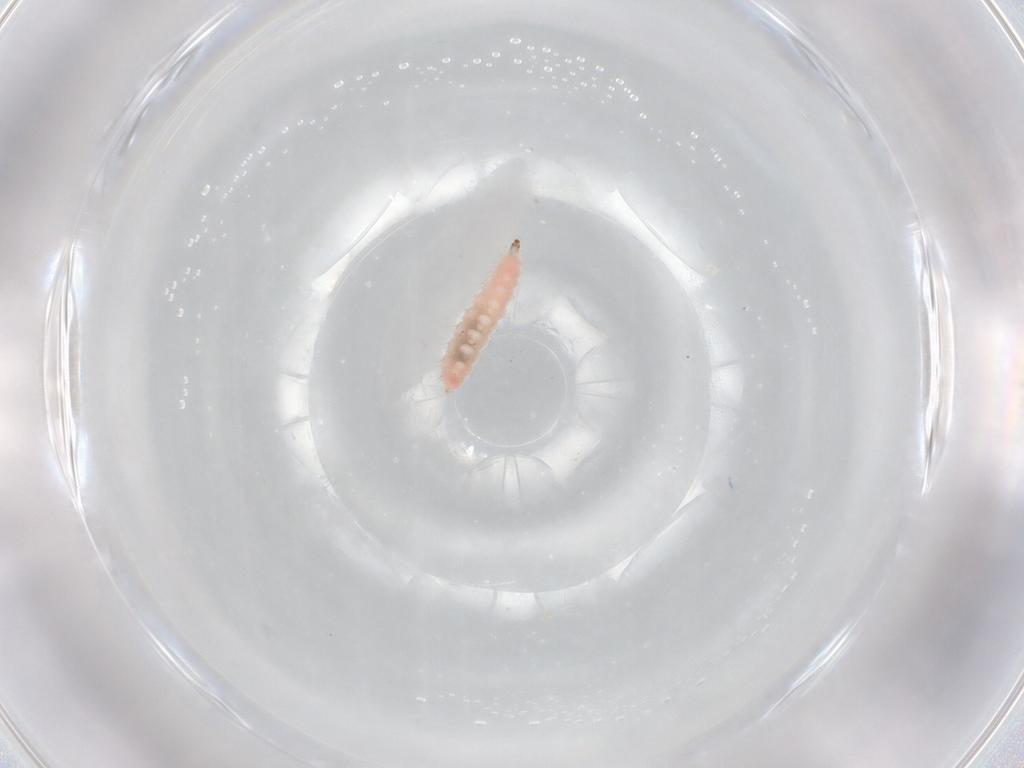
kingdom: Animalia
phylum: Arthropoda
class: Insecta
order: Diptera
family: Cecidomyiidae
